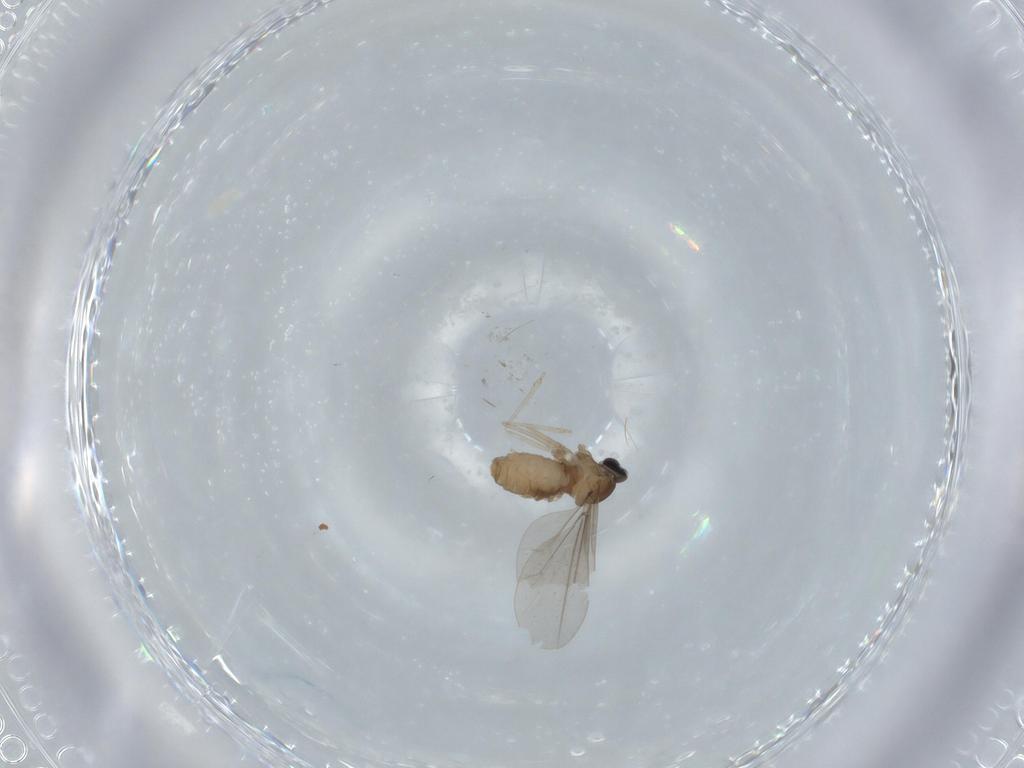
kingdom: Animalia
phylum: Arthropoda
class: Insecta
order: Diptera
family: Cecidomyiidae
